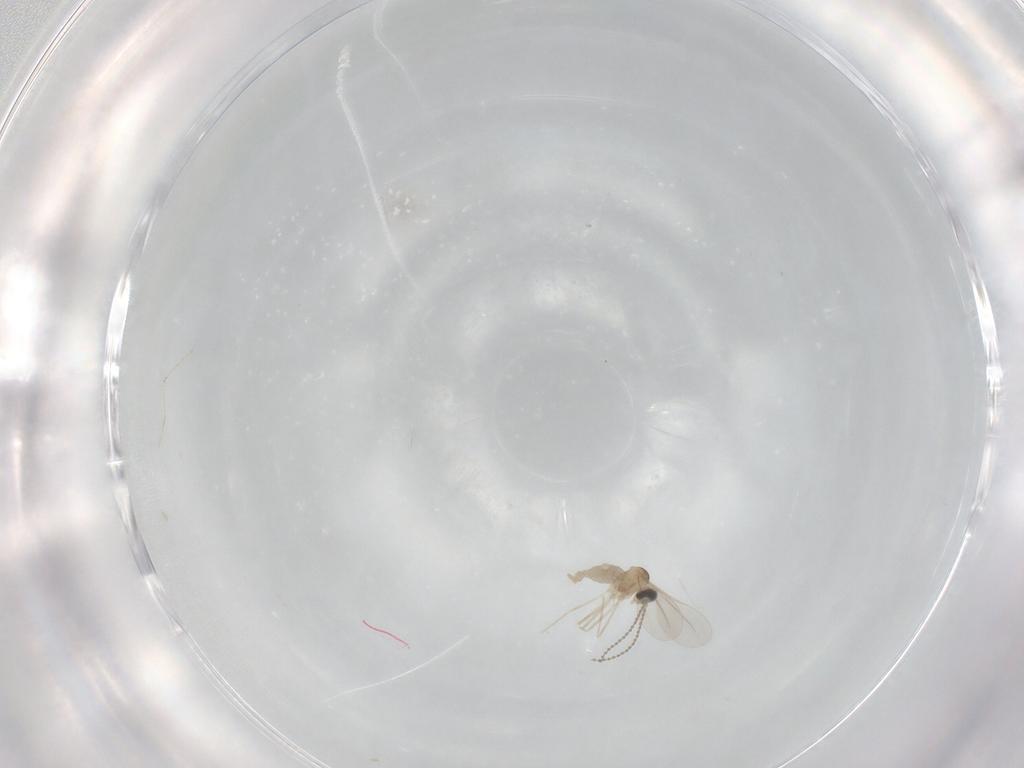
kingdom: Animalia
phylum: Arthropoda
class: Insecta
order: Diptera
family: Cecidomyiidae
